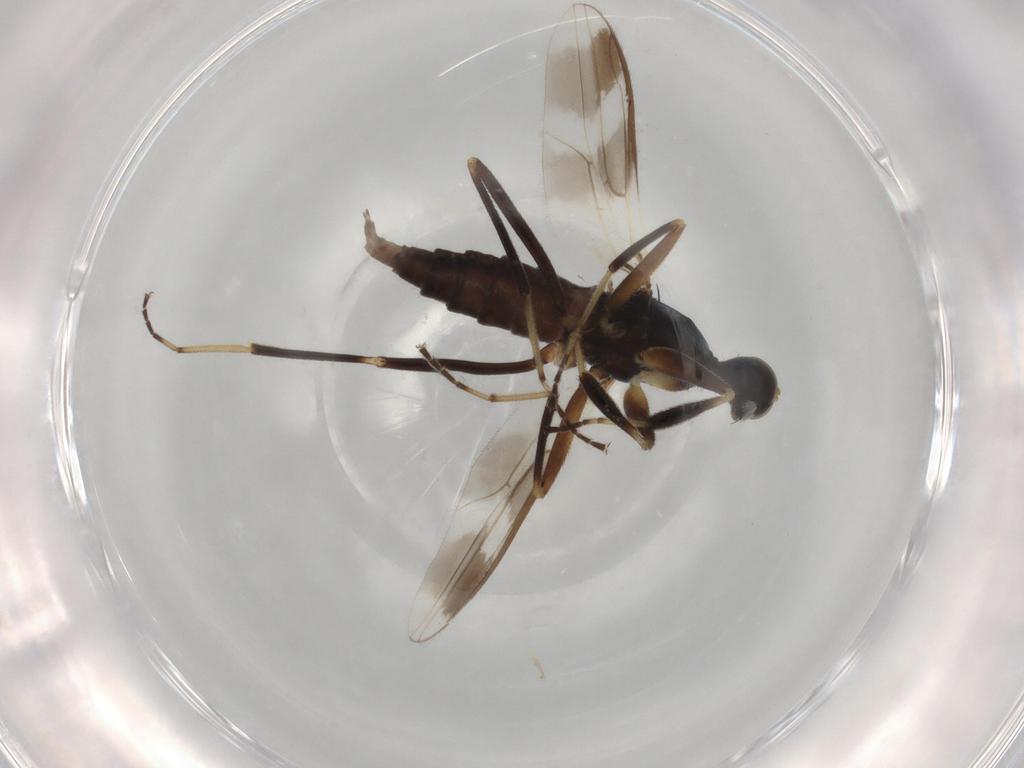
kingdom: Animalia
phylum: Arthropoda
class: Insecta
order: Diptera
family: Hybotidae
